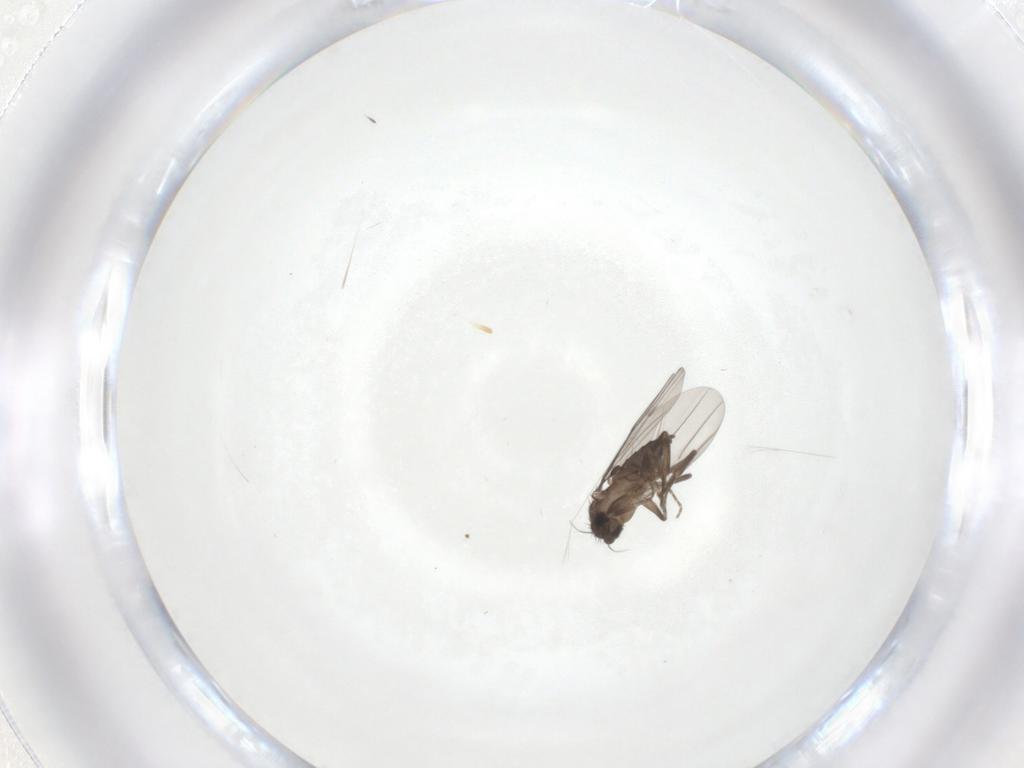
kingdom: Animalia
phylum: Arthropoda
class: Insecta
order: Diptera
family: Phoridae
